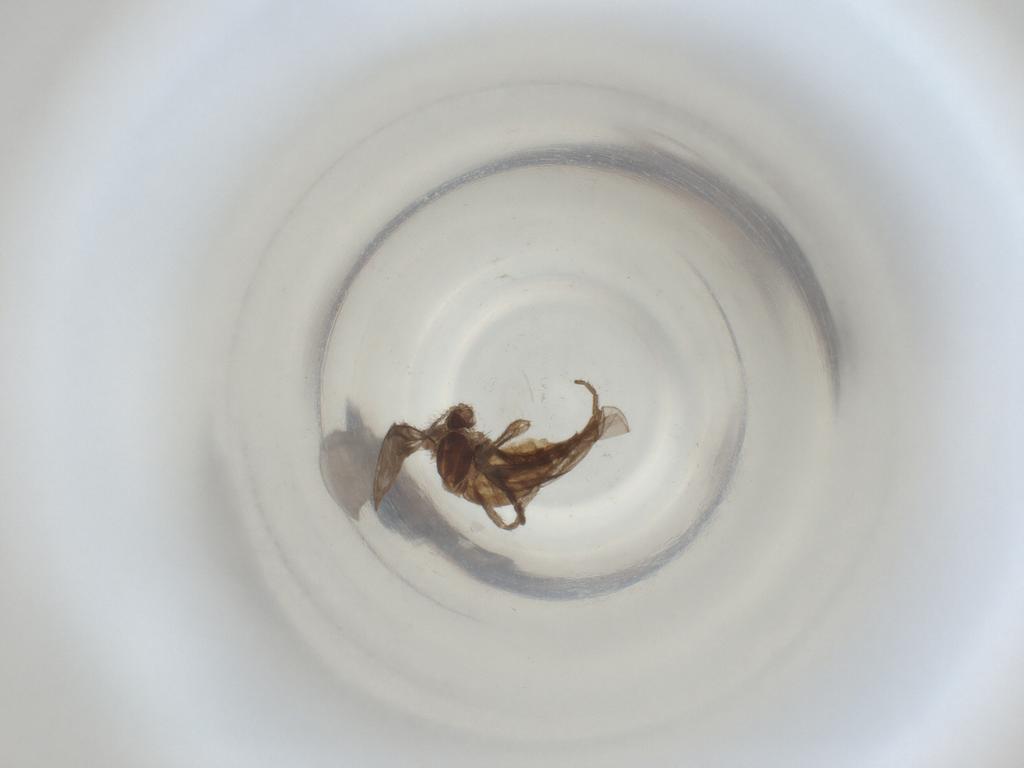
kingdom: Animalia
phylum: Arthropoda
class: Insecta
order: Diptera
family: Cecidomyiidae
